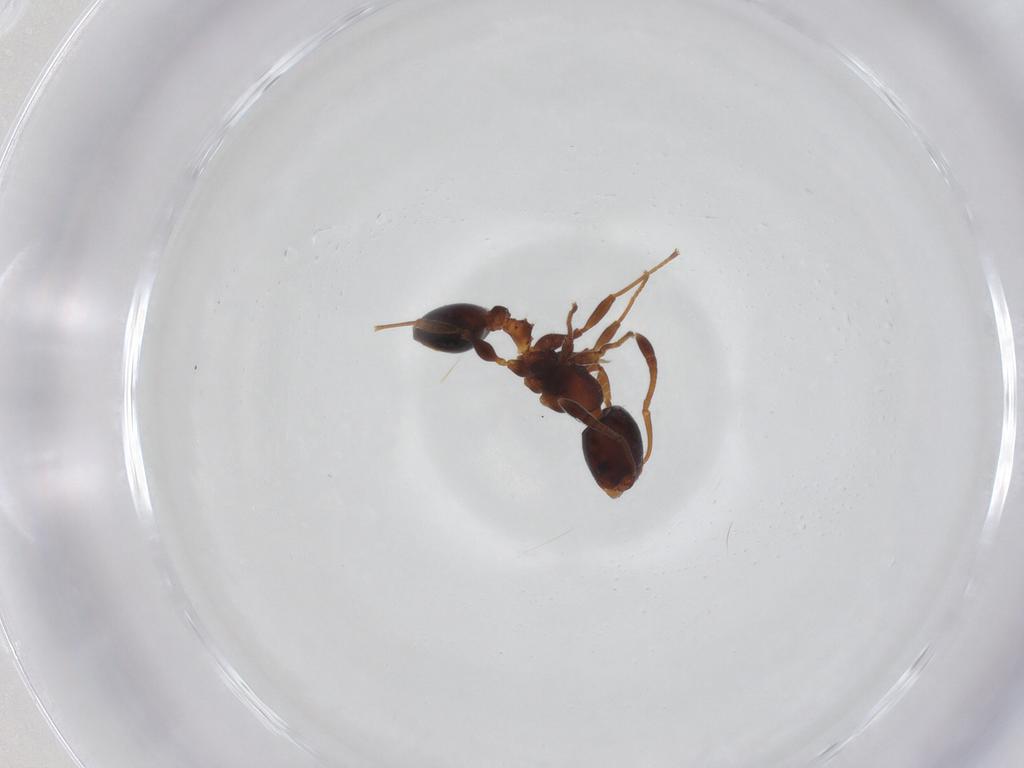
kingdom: Animalia
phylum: Arthropoda
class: Insecta
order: Hymenoptera
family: Formicidae
